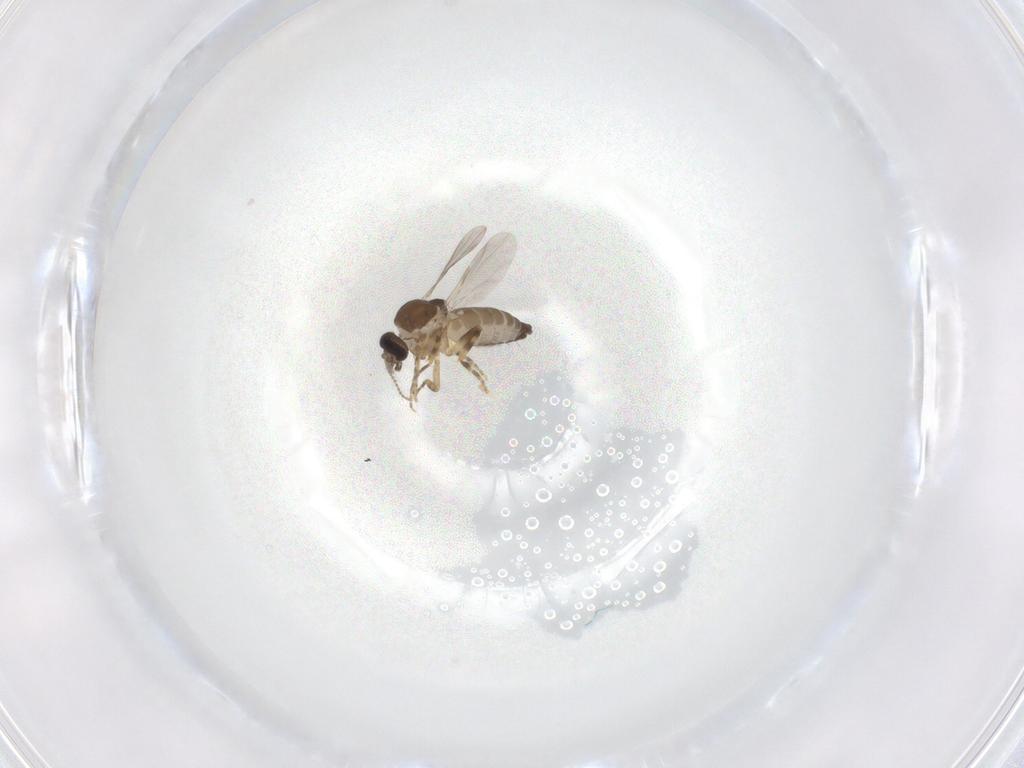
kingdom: Animalia
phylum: Arthropoda
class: Insecta
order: Diptera
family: Ceratopogonidae
